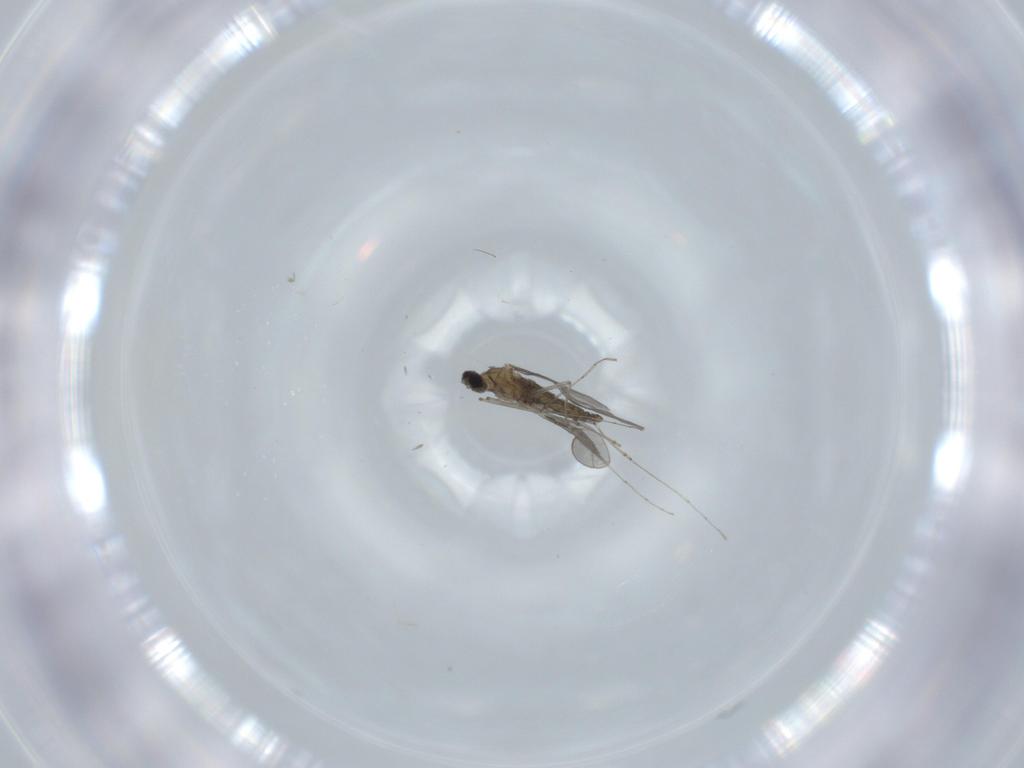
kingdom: Animalia
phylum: Arthropoda
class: Insecta
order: Diptera
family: Cecidomyiidae
